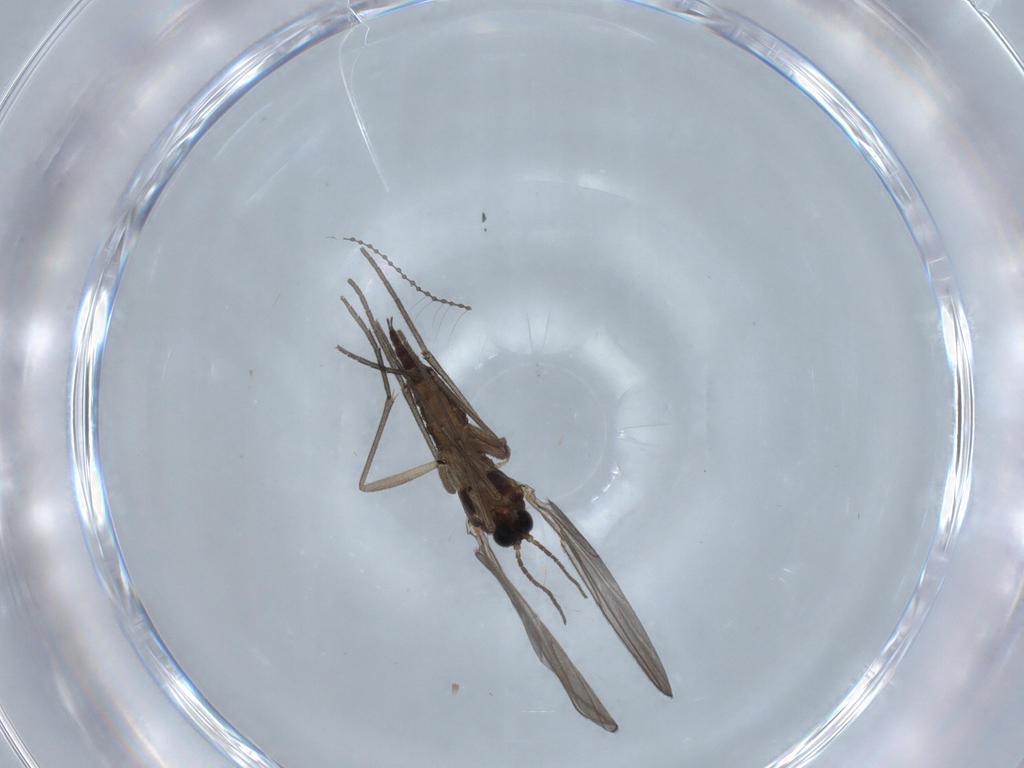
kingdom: Animalia
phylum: Arthropoda
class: Insecta
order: Diptera
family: Sciaridae
